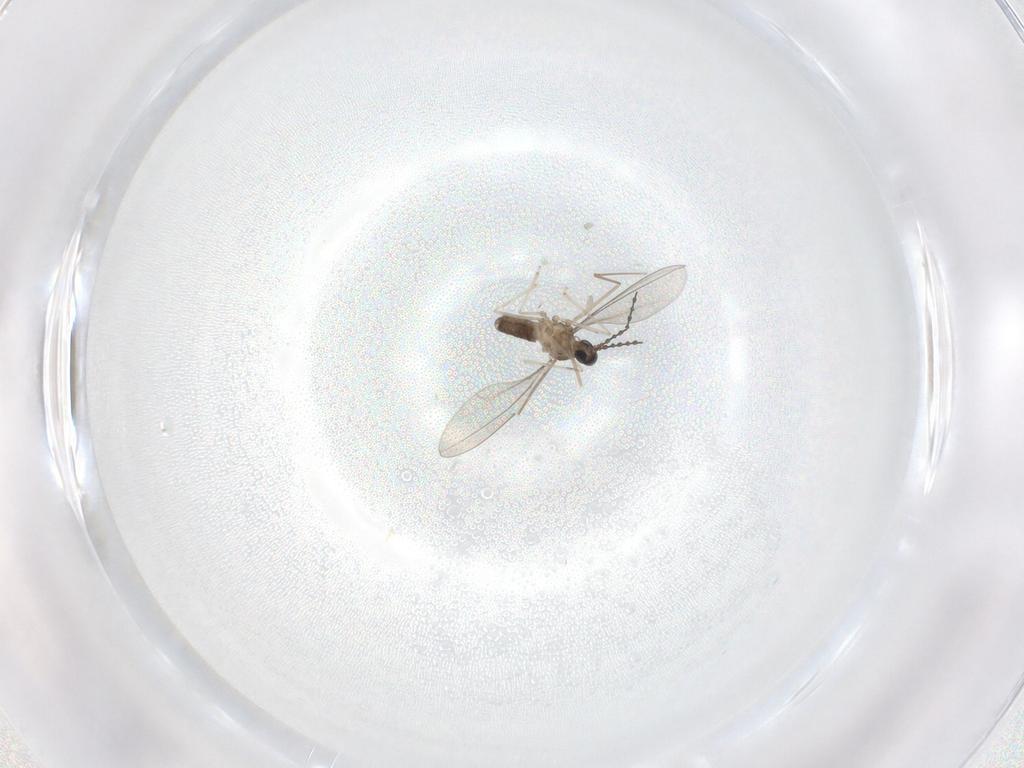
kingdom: Animalia
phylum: Arthropoda
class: Insecta
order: Diptera
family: Cecidomyiidae
